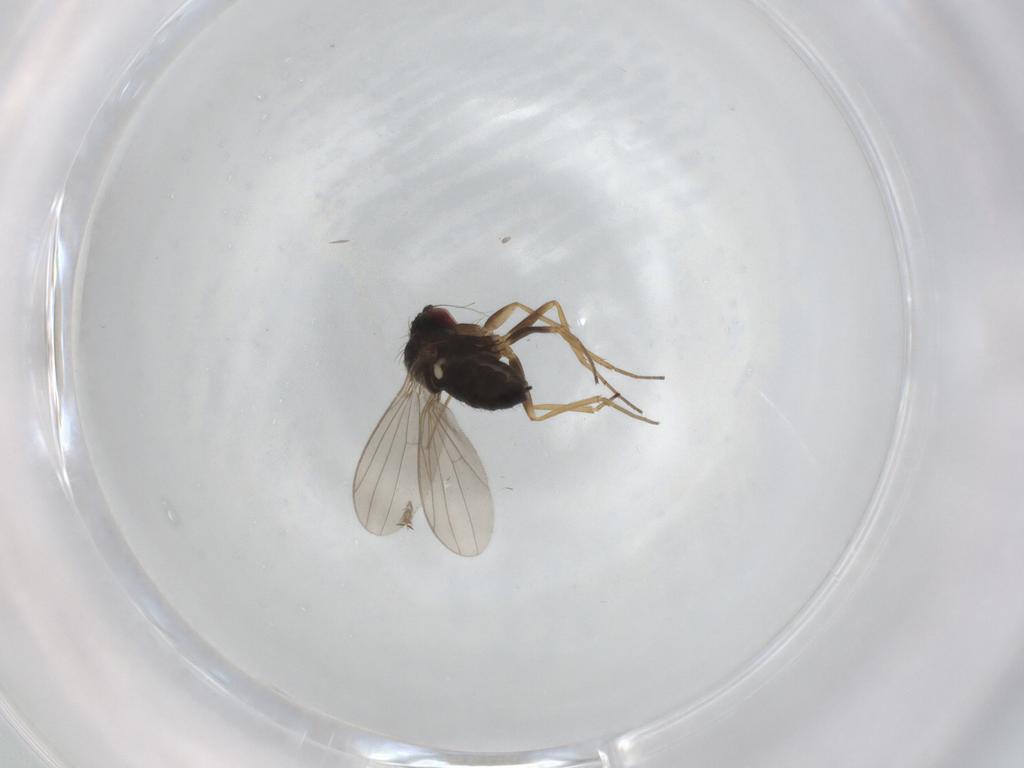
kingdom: Animalia
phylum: Arthropoda
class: Insecta
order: Diptera
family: Dolichopodidae
